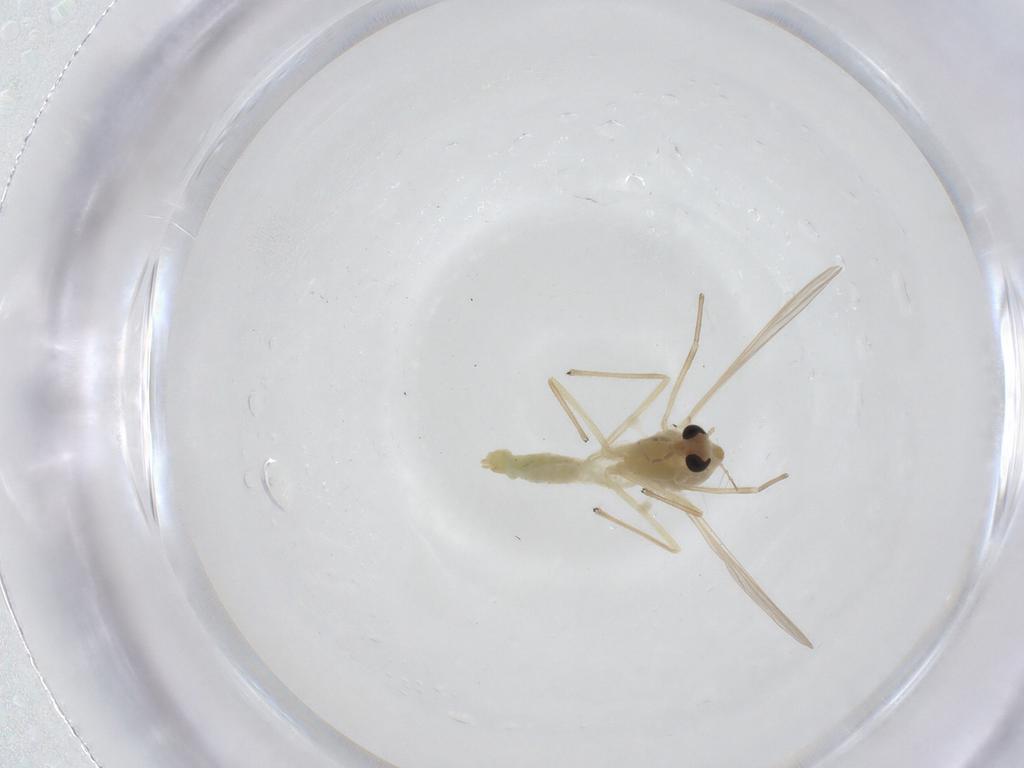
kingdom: Animalia
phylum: Arthropoda
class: Insecta
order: Diptera
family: Chironomidae
